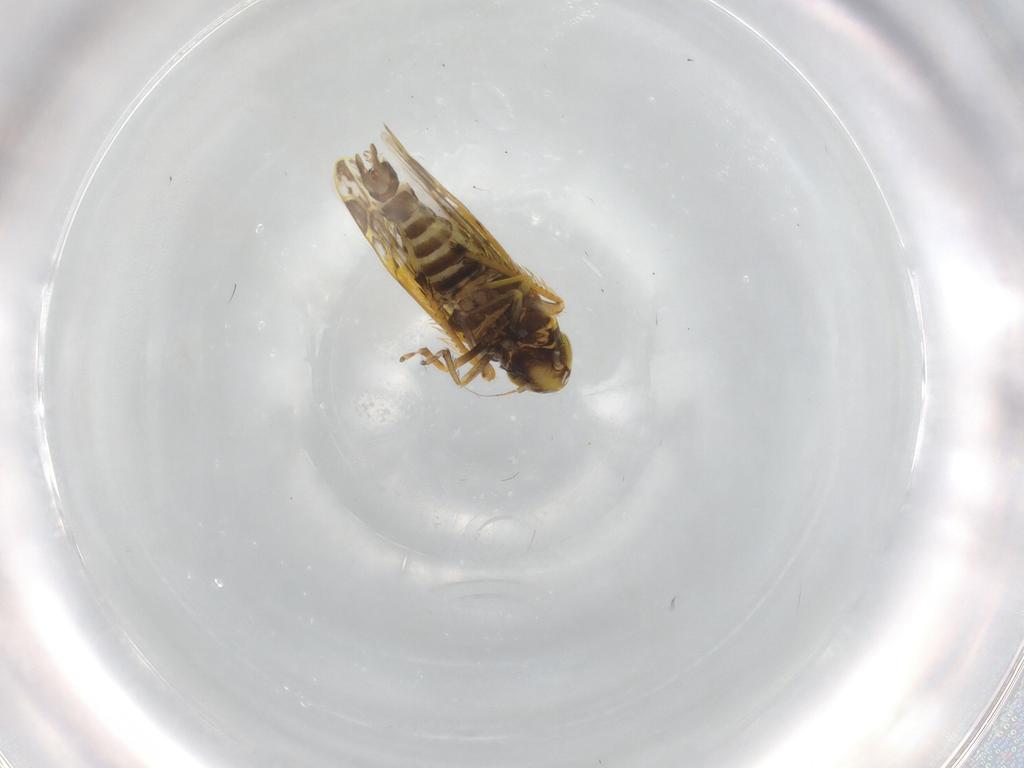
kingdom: Animalia
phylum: Arthropoda
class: Insecta
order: Hemiptera
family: Cicadellidae
